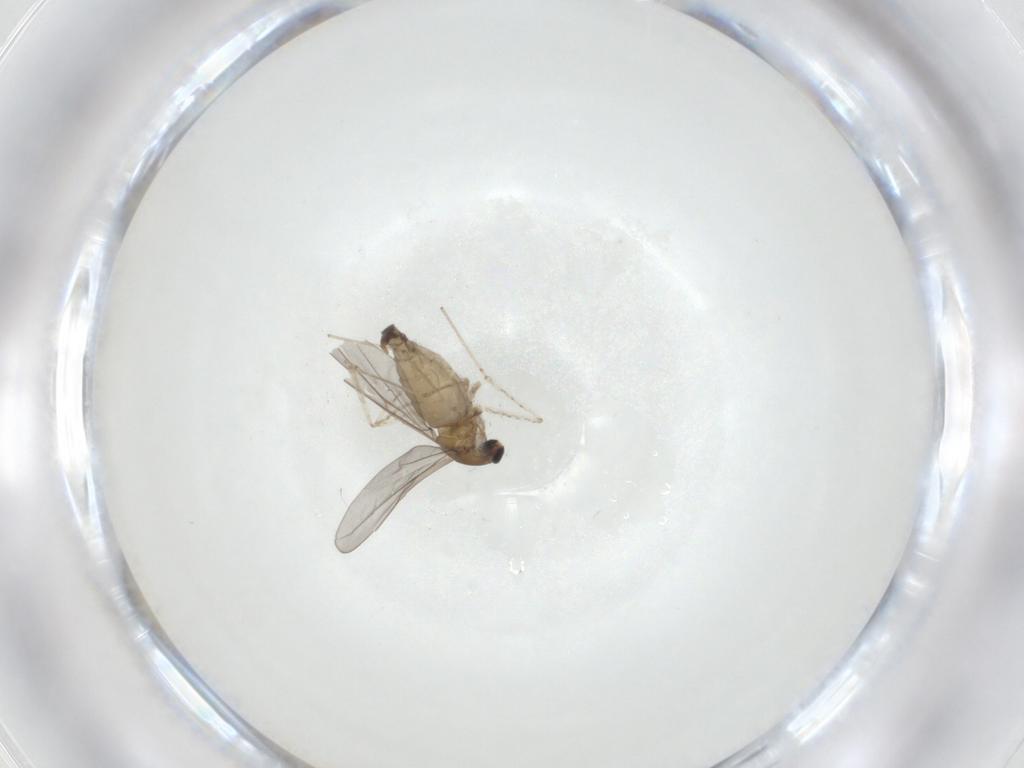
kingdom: Animalia
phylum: Arthropoda
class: Insecta
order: Diptera
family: Cecidomyiidae
